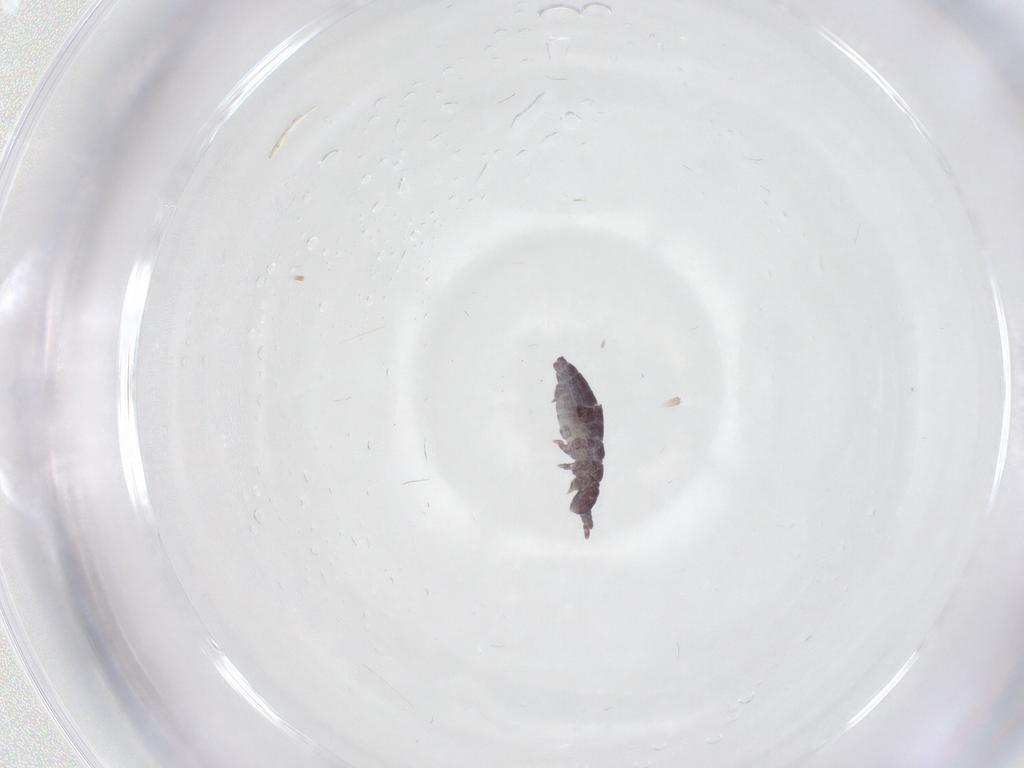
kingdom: Animalia
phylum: Arthropoda
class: Collembola
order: Poduromorpha
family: Hypogastruridae
